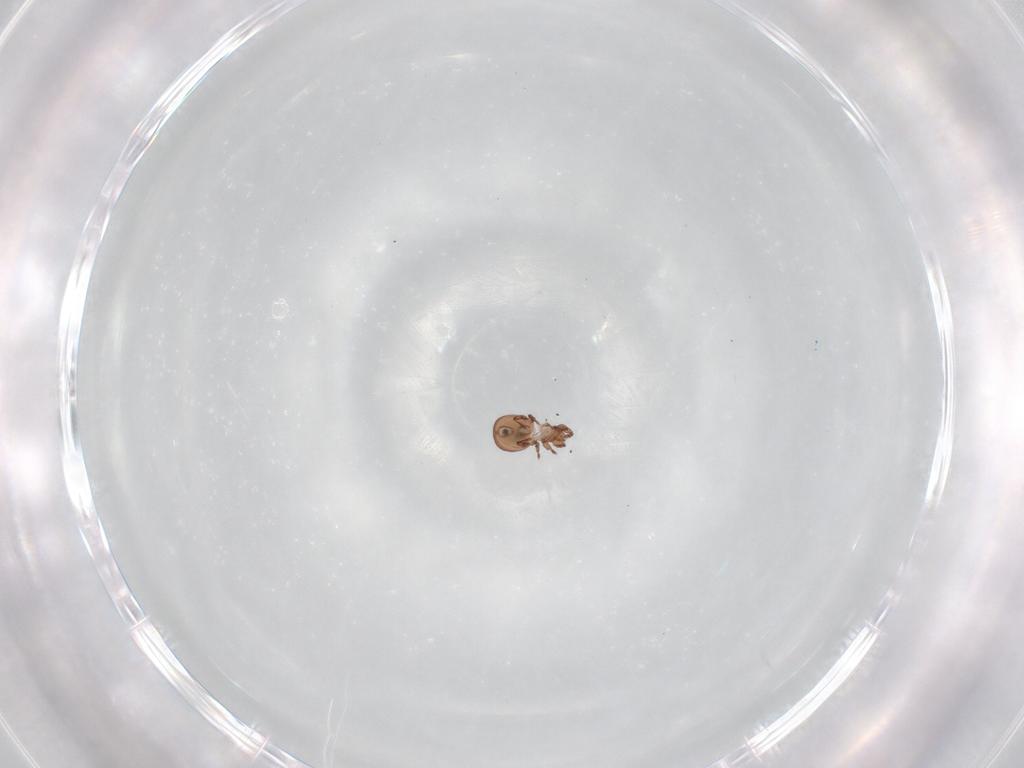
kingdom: Animalia
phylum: Arthropoda
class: Arachnida
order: Sarcoptiformes
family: Eremaeidae
